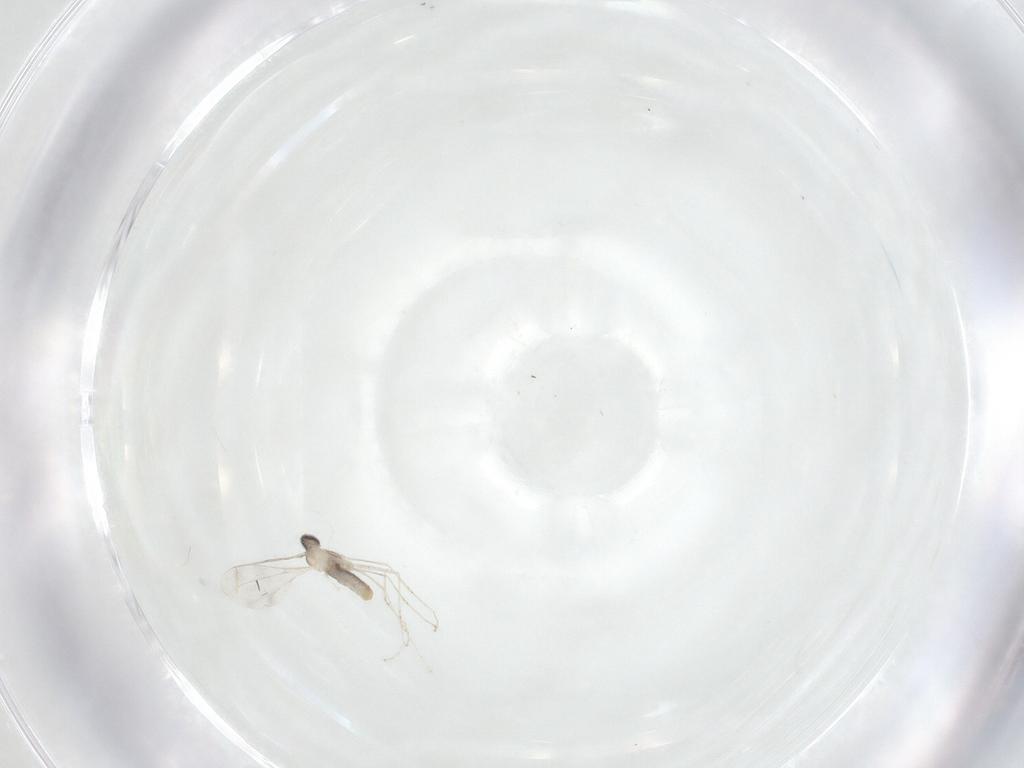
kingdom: Animalia
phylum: Arthropoda
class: Insecta
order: Diptera
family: Cecidomyiidae
